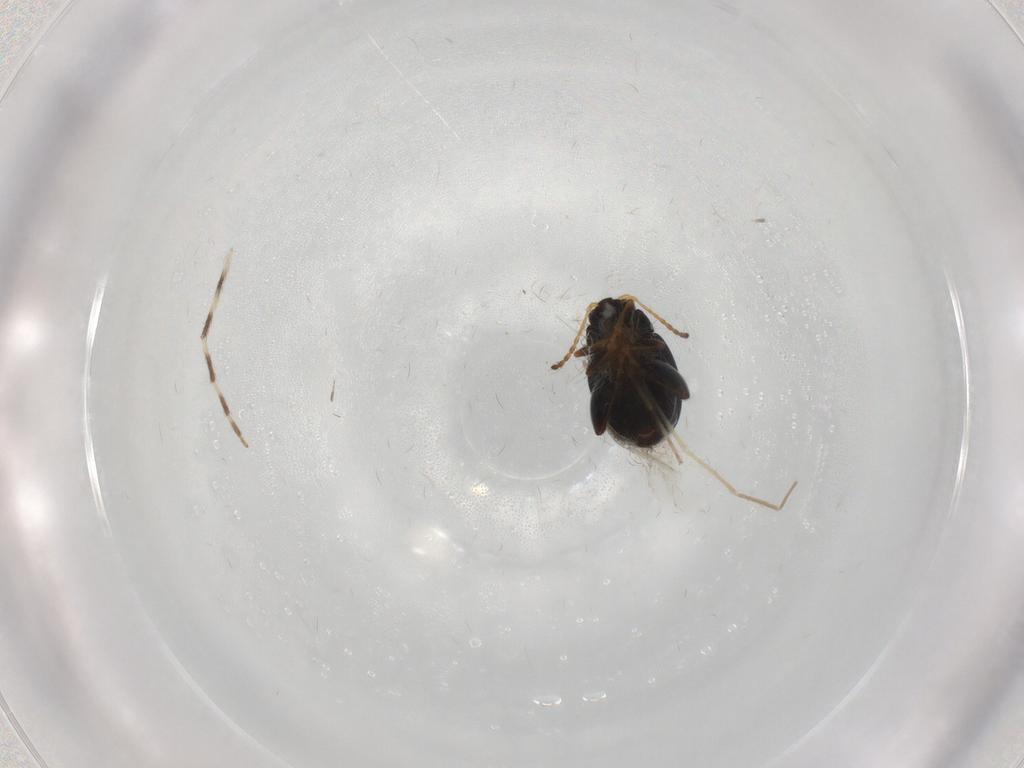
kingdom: Animalia
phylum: Arthropoda
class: Insecta
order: Coleoptera
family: Chrysomelidae
